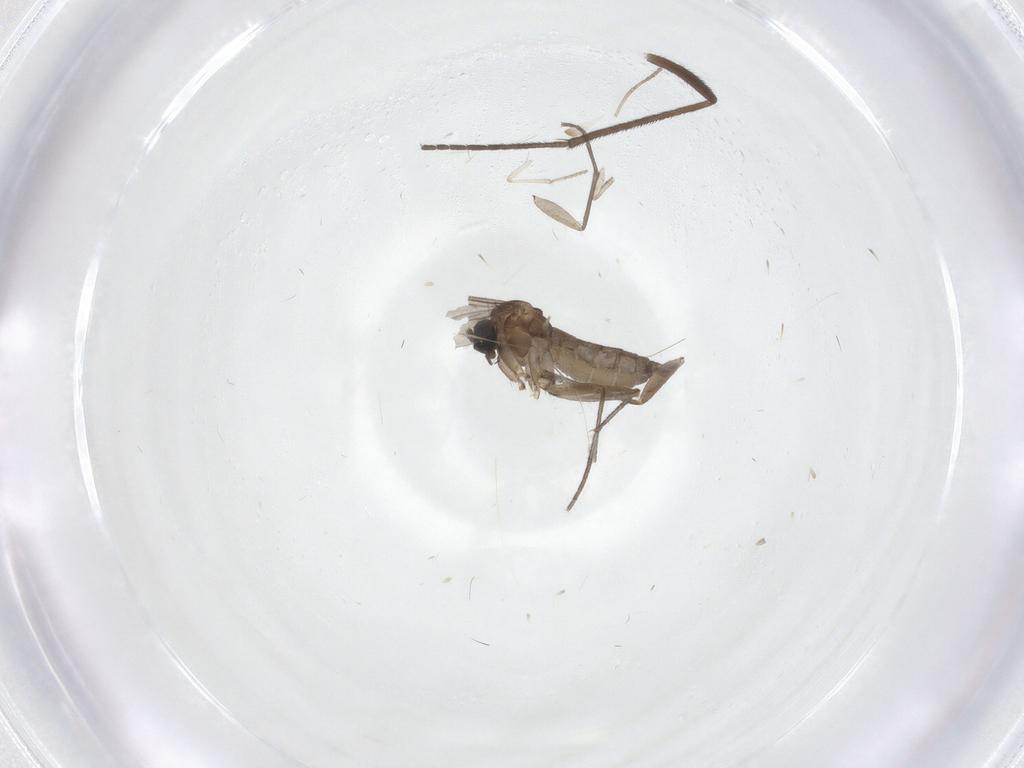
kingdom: Animalia
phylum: Arthropoda
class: Insecta
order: Diptera
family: Sciaridae
